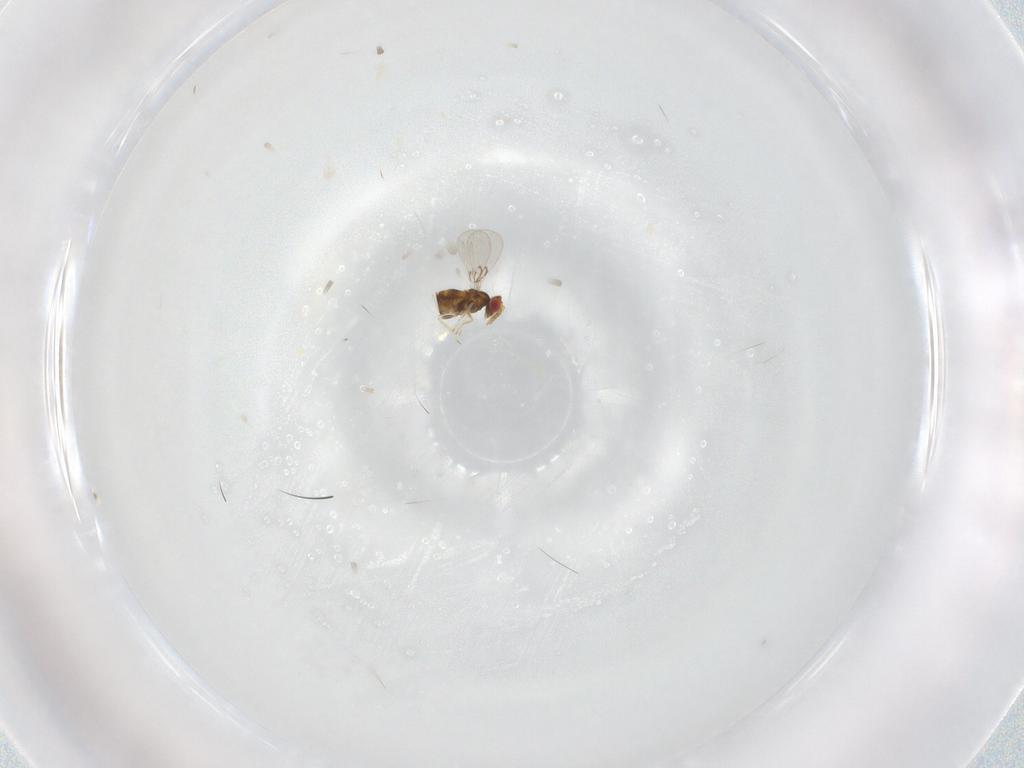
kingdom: Animalia
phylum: Arthropoda
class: Insecta
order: Hymenoptera
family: Trichogrammatidae
